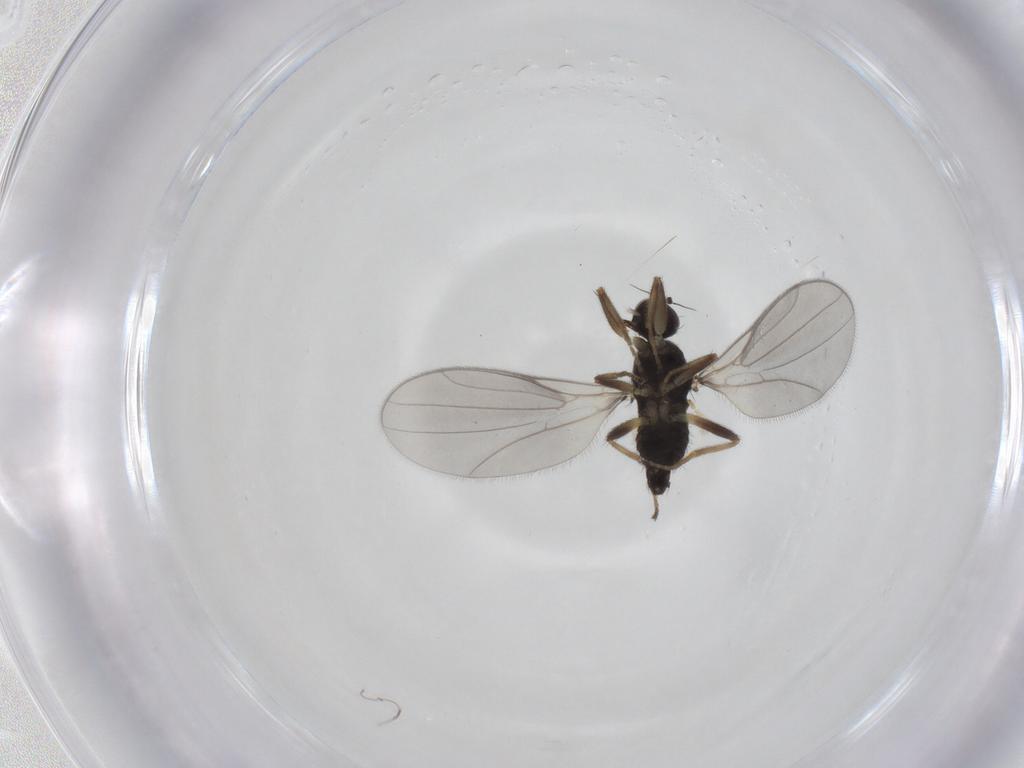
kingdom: Animalia
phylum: Arthropoda
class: Insecta
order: Diptera
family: Hybotidae
